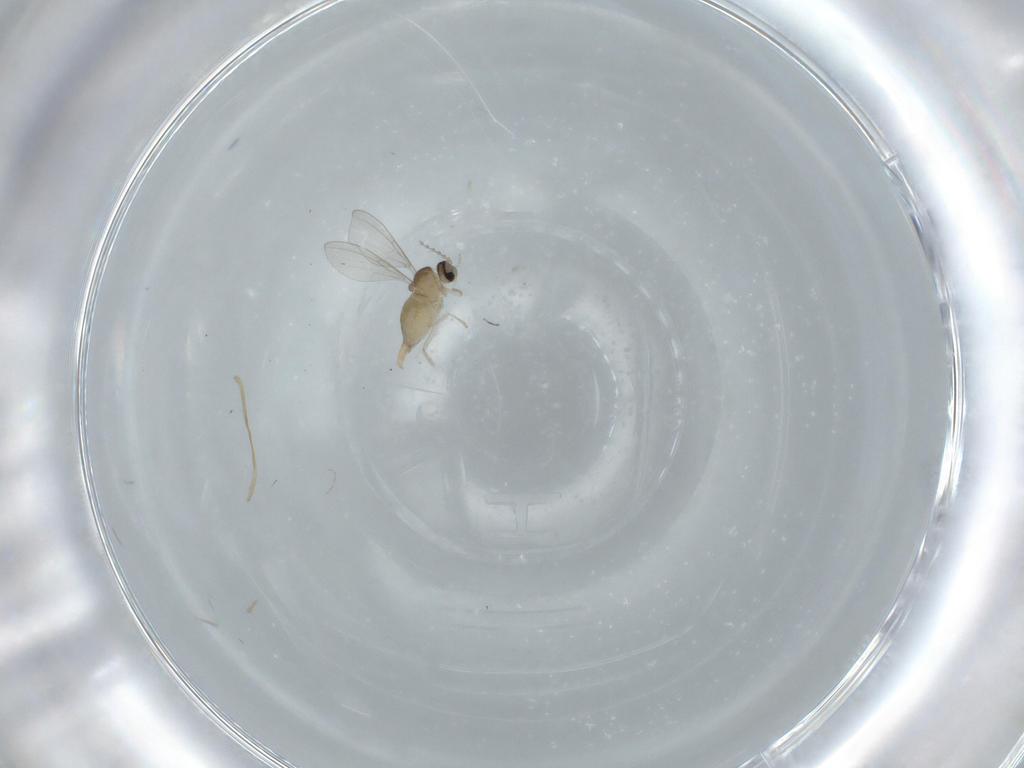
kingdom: Animalia
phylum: Arthropoda
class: Insecta
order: Diptera
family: Cecidomyiidae
